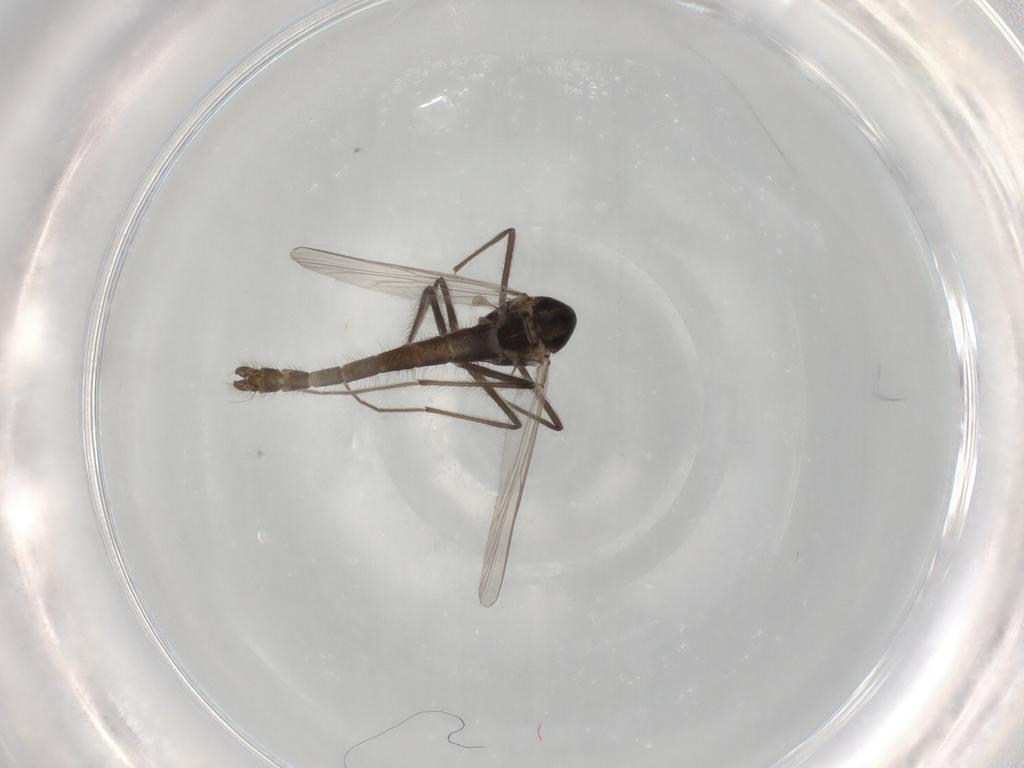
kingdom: Animalia
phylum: Arthropoda
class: Insecta
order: Diptera
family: Chironomidae
